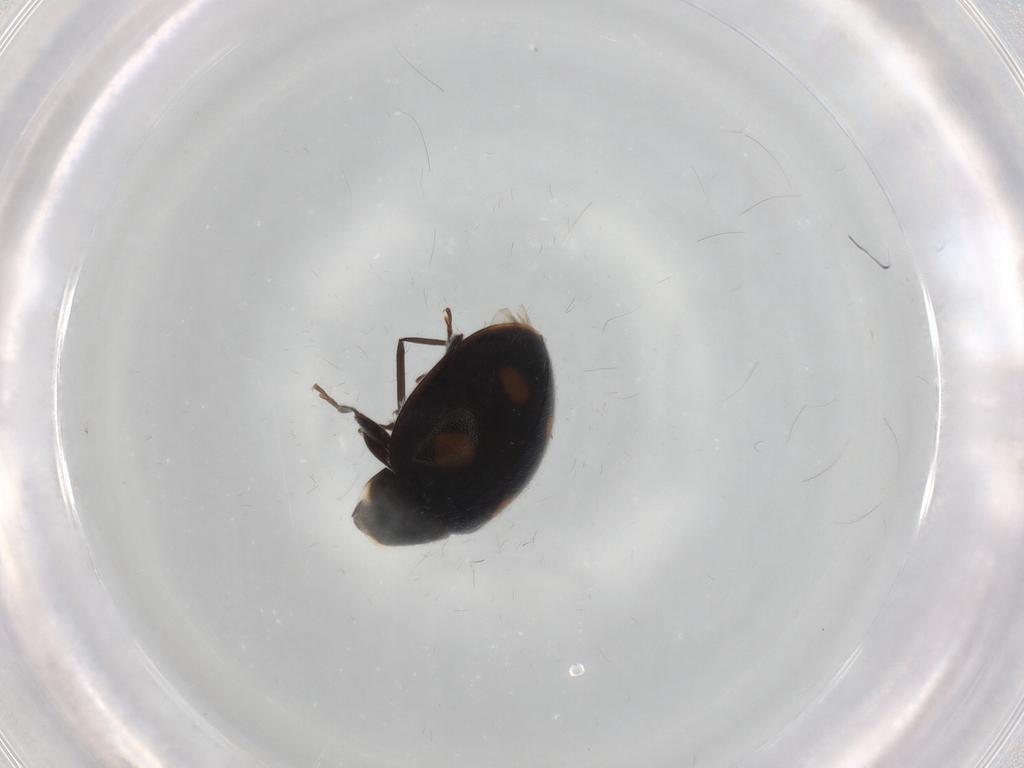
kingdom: Animalia
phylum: Arthropoda
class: Insecta
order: Coleoptera
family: Coccinellidae
